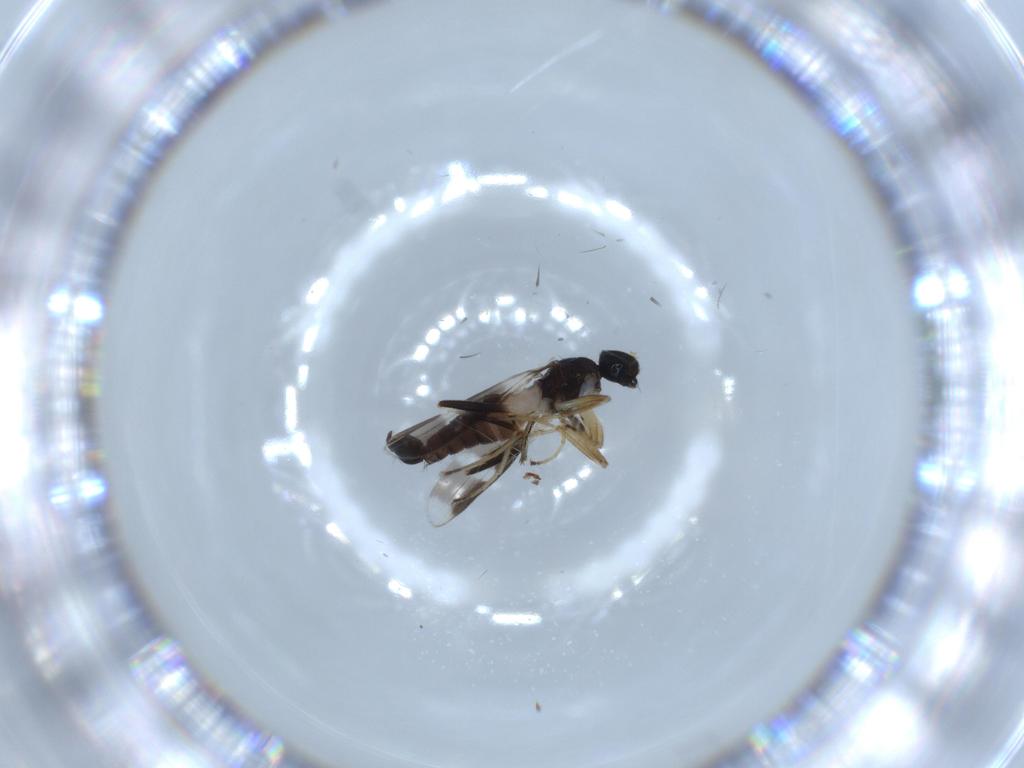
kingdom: Animalia
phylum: Arthropoda
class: Insecta
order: Diptera
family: Hybotidae
